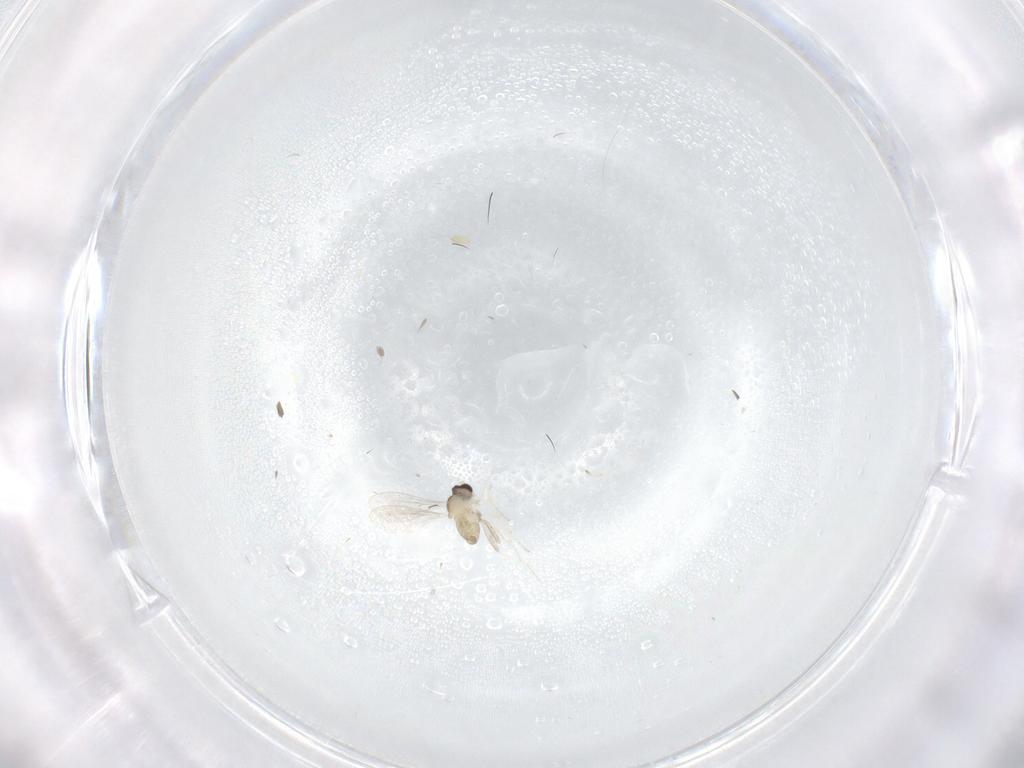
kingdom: Animalia
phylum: Arthropoda
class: Insecta
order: Diptera
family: Cecidomyiidae
